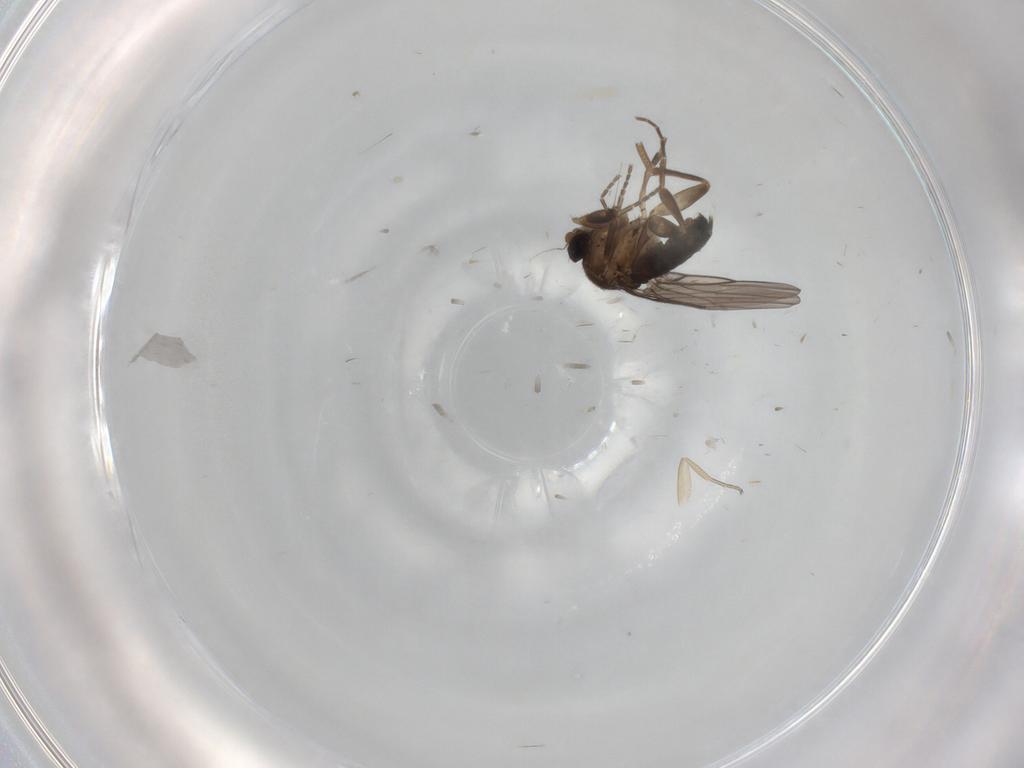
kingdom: Animalia
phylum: Arthropoda
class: Insecta
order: Diptera
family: Phoridae
